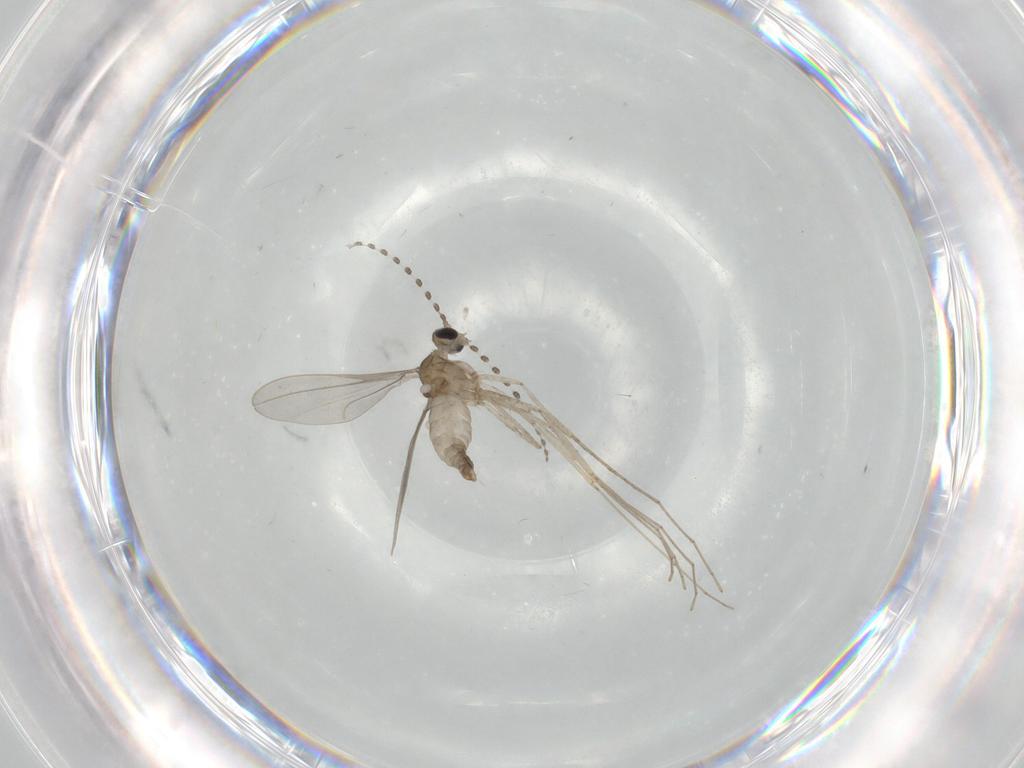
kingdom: Animalia
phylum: Arthropoda
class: Insecta
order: Diptera
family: Cecidomyiidae
